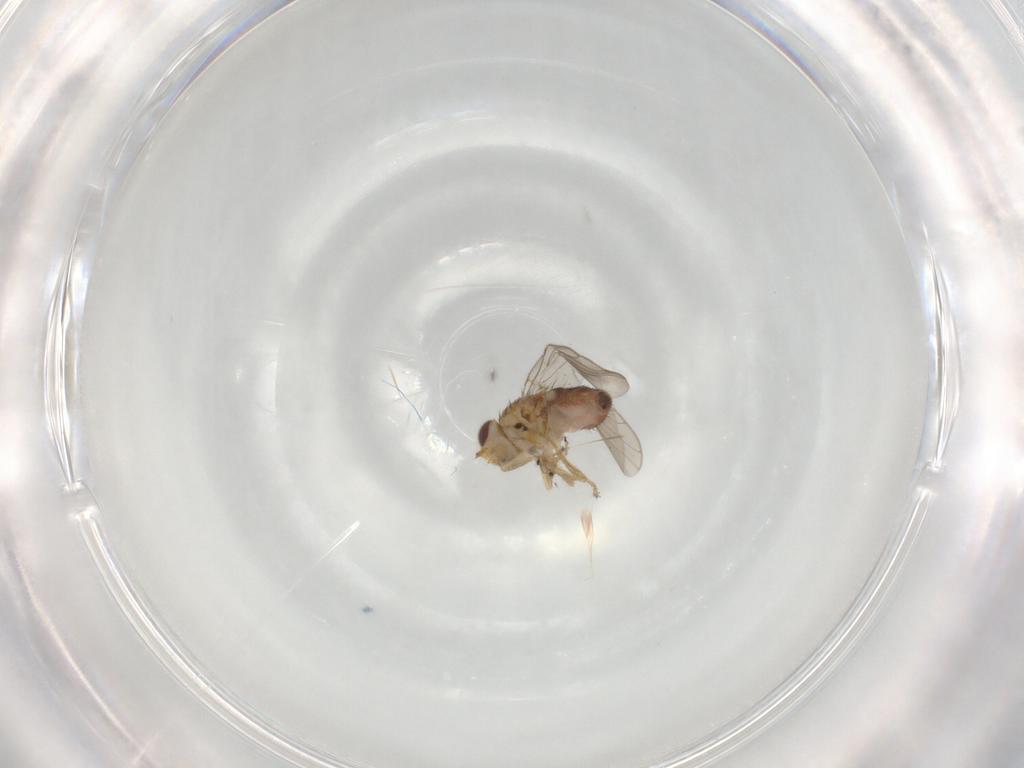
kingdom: Animalia
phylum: Arthropoda
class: Insecta
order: Diptera
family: Chloropidae
